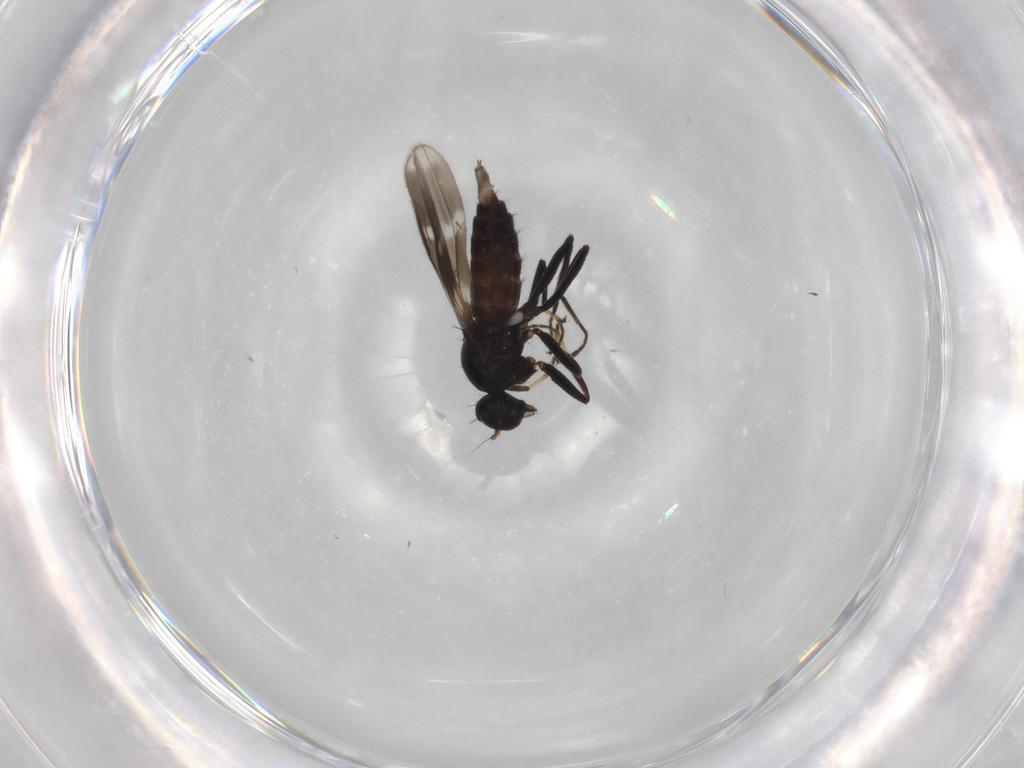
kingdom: Animalia
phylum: Arthropoda
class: Insecta
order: Diptera
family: Hybotidae
